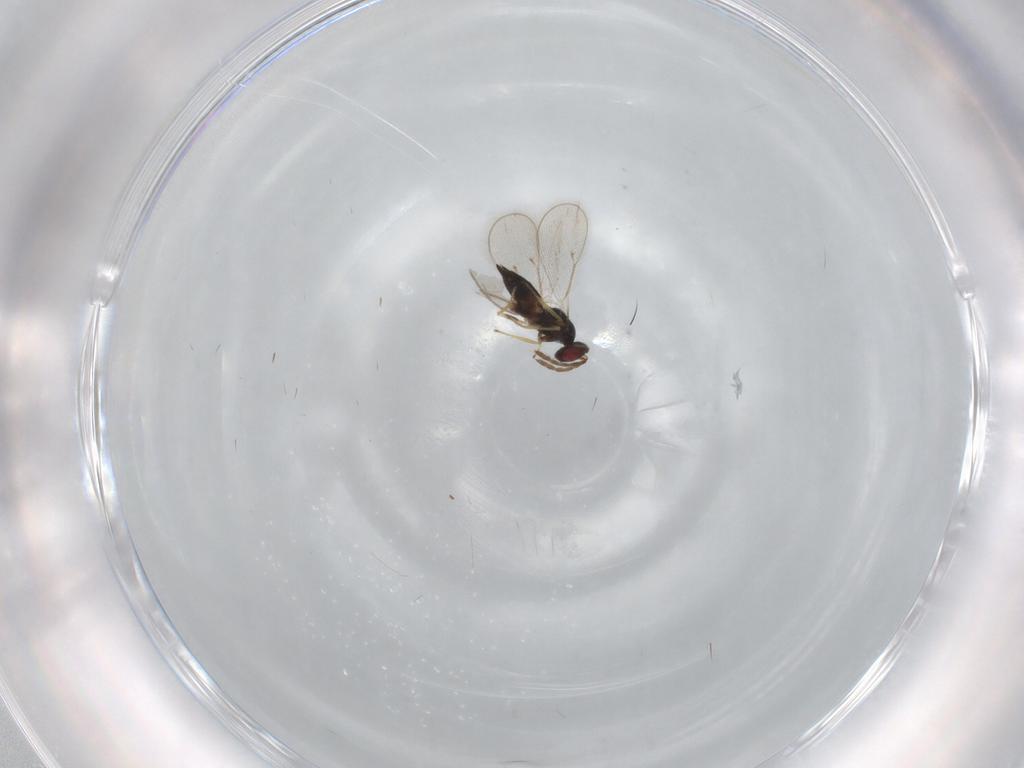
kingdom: Animalia
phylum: Arthropoda
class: Insecta
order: Hymenoptera
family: Eulophidae
